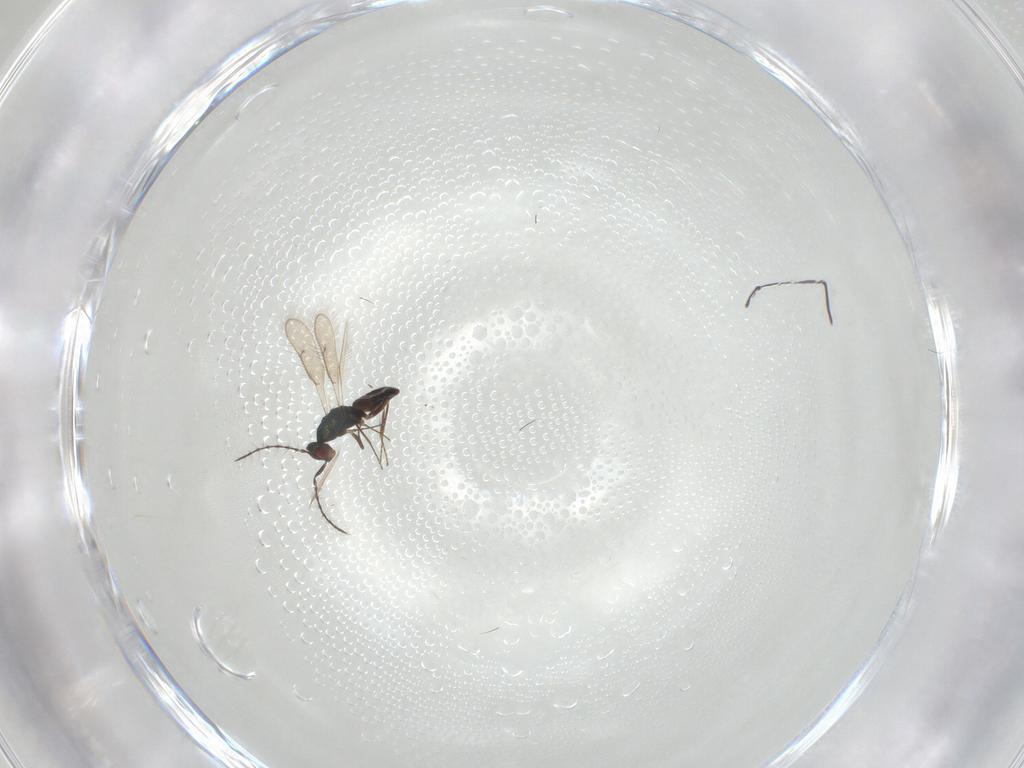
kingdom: Animalia
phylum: Arthropoda
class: Insecta
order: Hymenoptera
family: Pteromalidae
